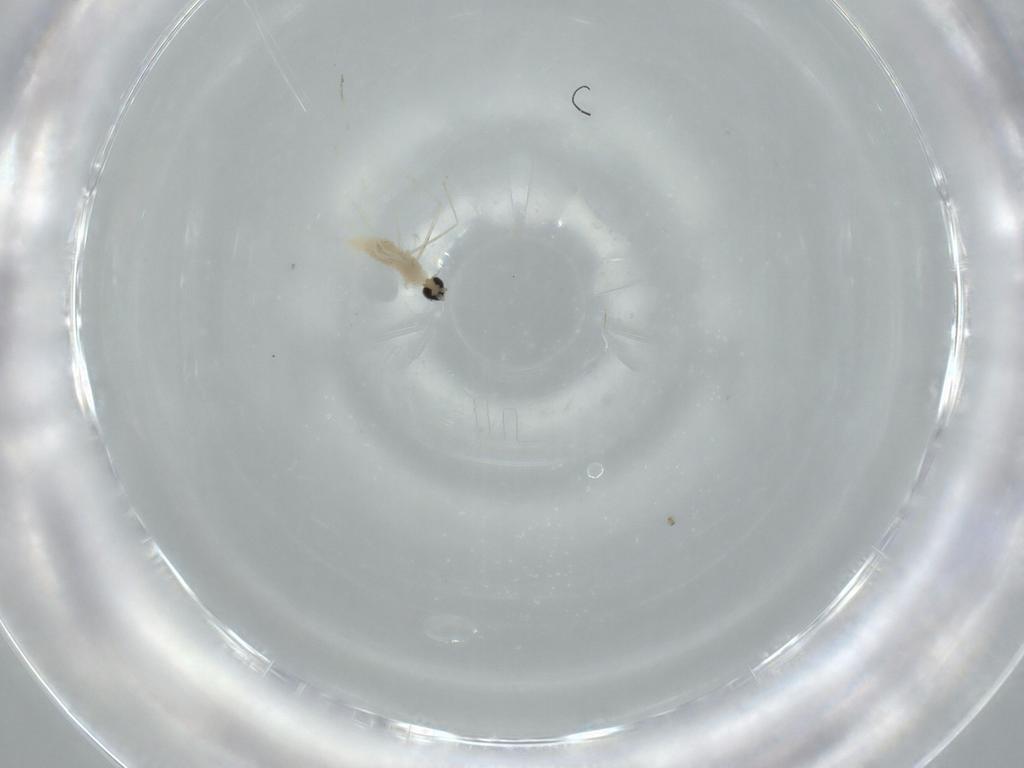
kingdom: Animalia
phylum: Arthropoda
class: Insecta
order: Diptera
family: Cecidomyiidae
